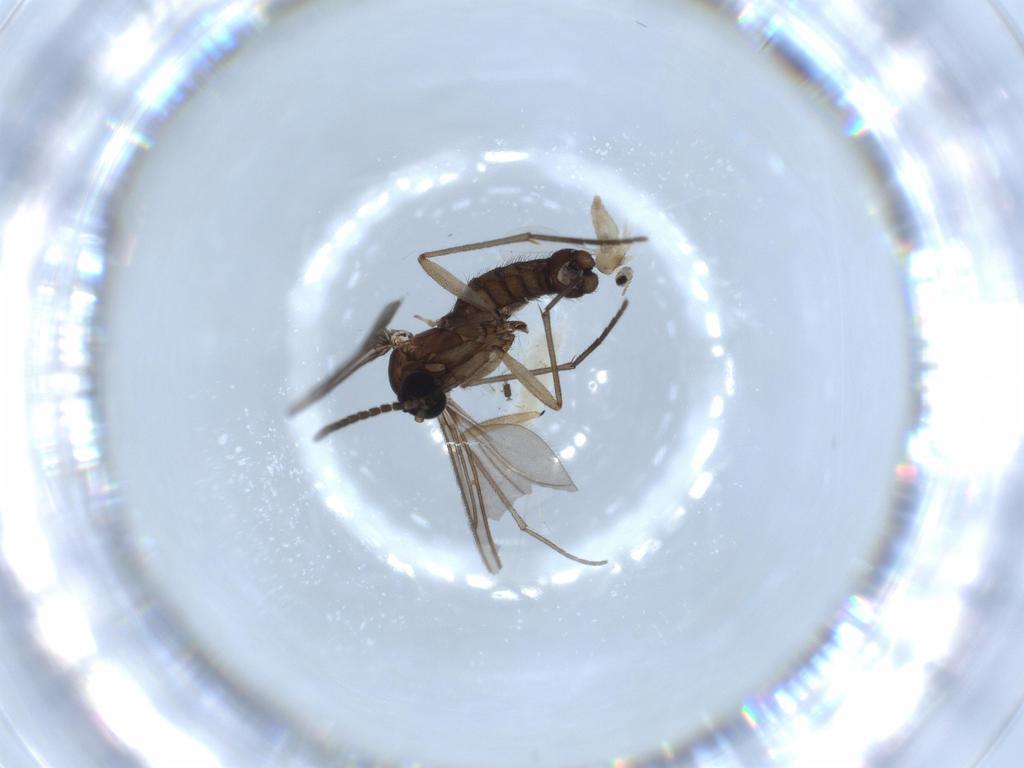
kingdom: Animalia
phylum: Arthropoda
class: Insecta
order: Diptera
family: Sciaridae
